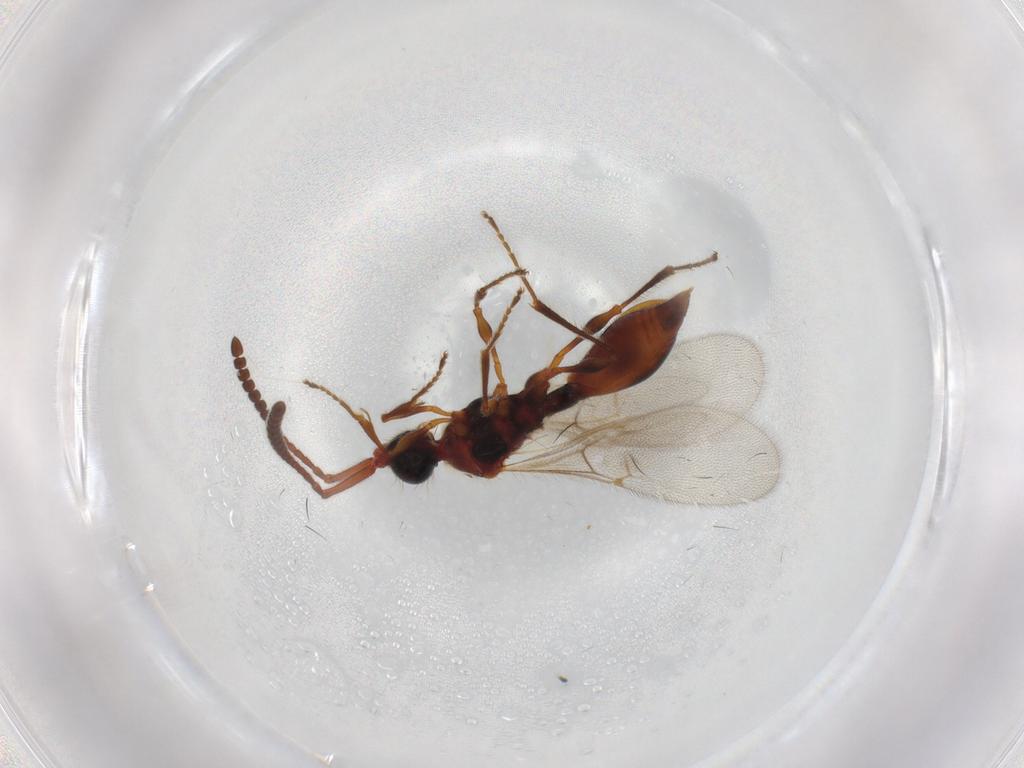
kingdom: Animalia
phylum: Arthropoda
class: Insecta
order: Hymenoptera
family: Diapriidae
